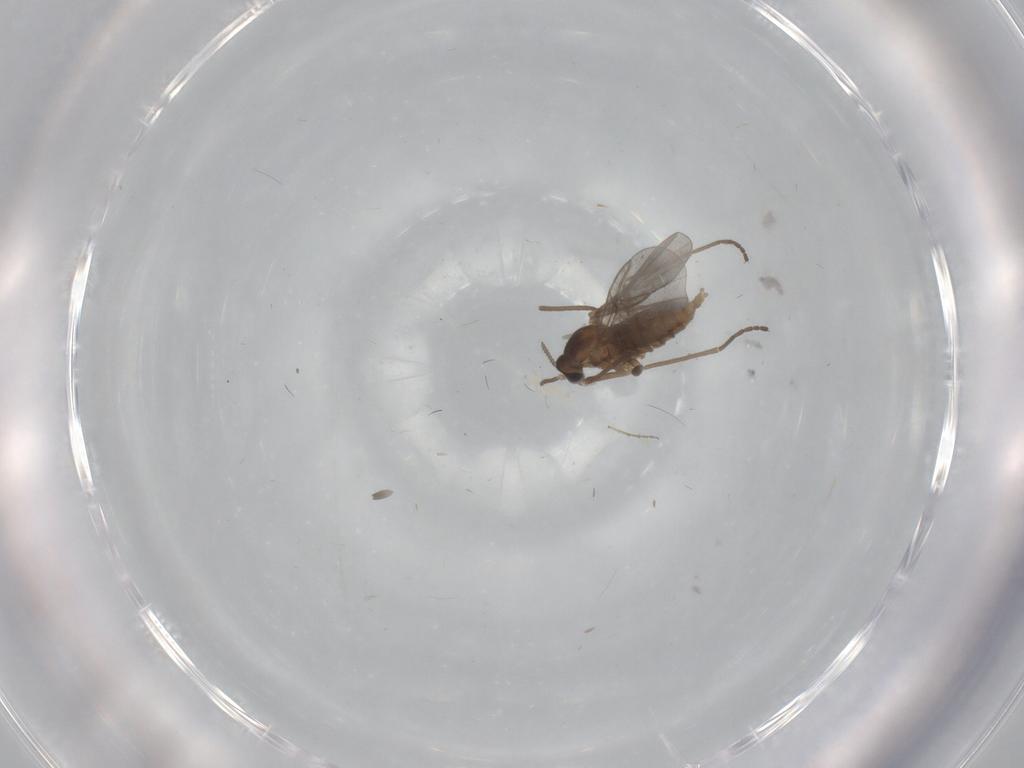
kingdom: Animalia
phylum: Arthropoda
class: Insecta
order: Diptera
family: Cecidomyiidae
